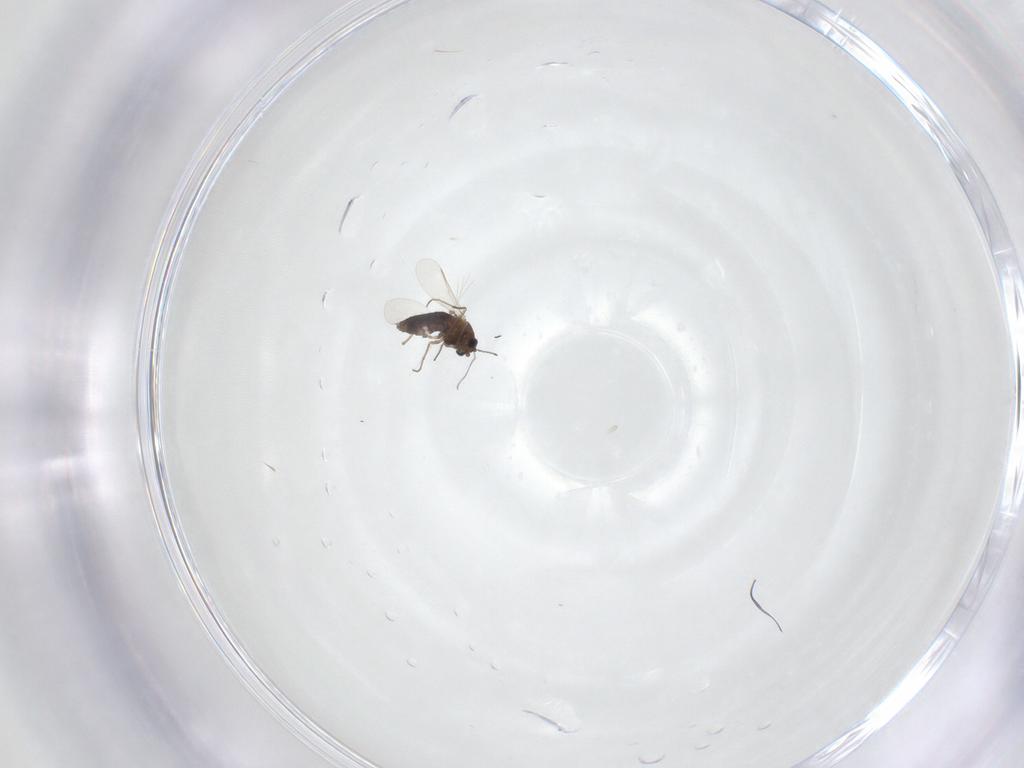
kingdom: Animalia
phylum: Arthropoda
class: Insecta
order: Diptera
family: Chironomidae
